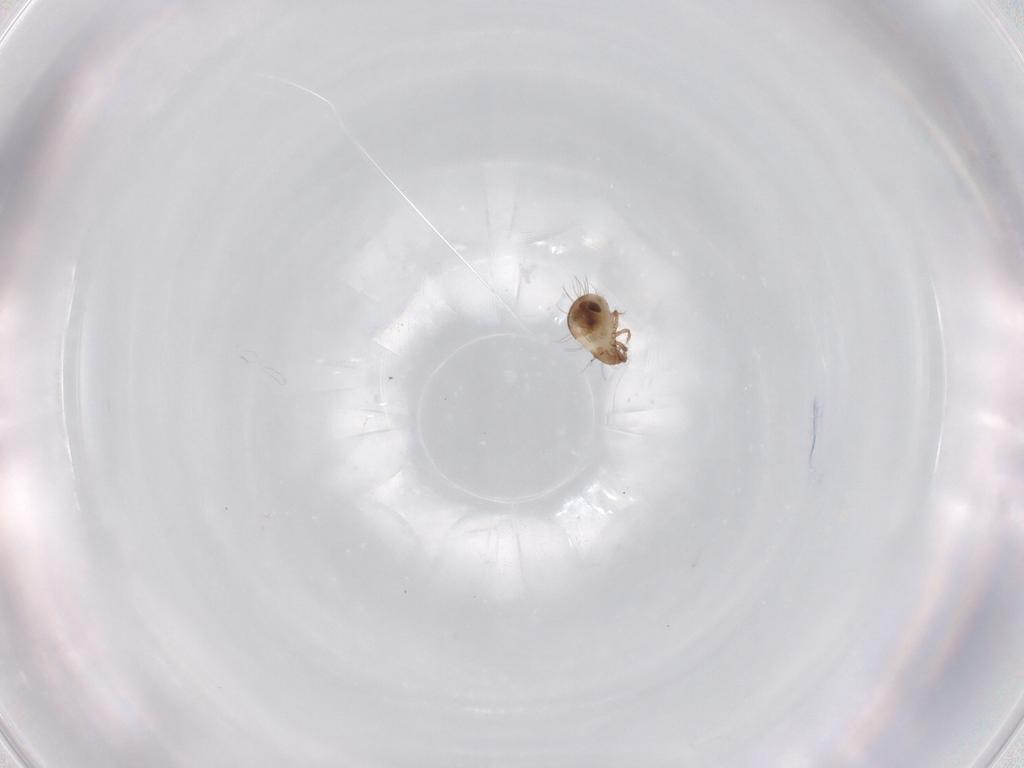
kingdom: Animalia
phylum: Arthropoda
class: Arachnida
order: Sarcoptiformes
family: Humerobatidae
